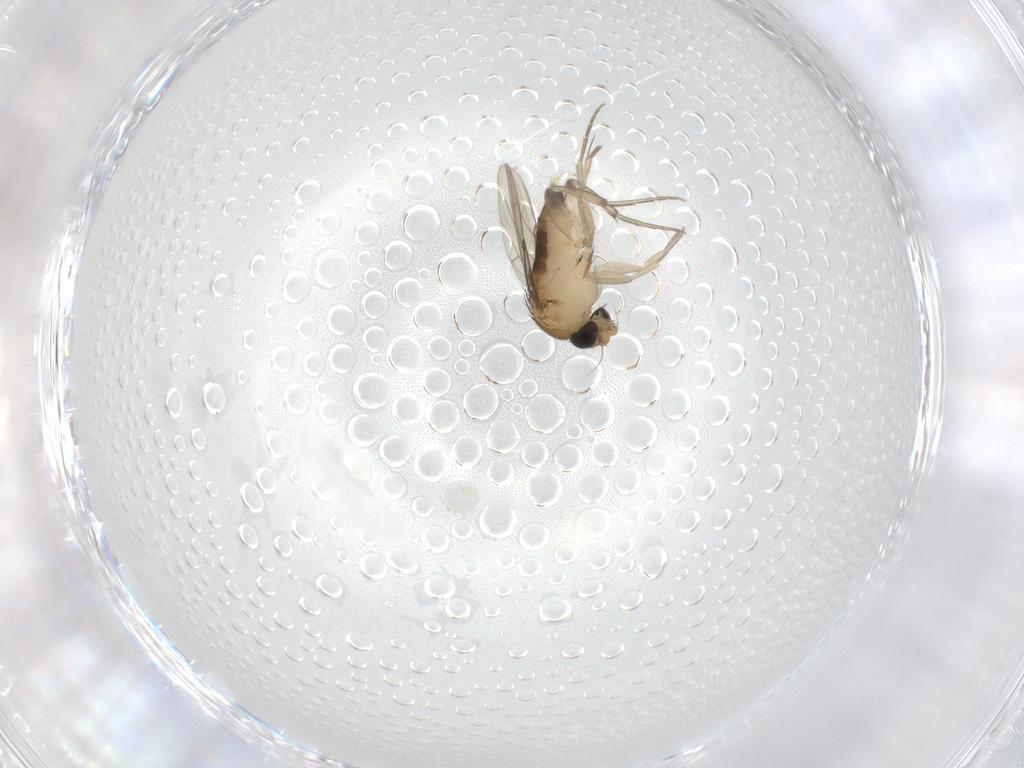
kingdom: Animalia
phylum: Arthropoda
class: Insecta
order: Diptera
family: Phoridae
